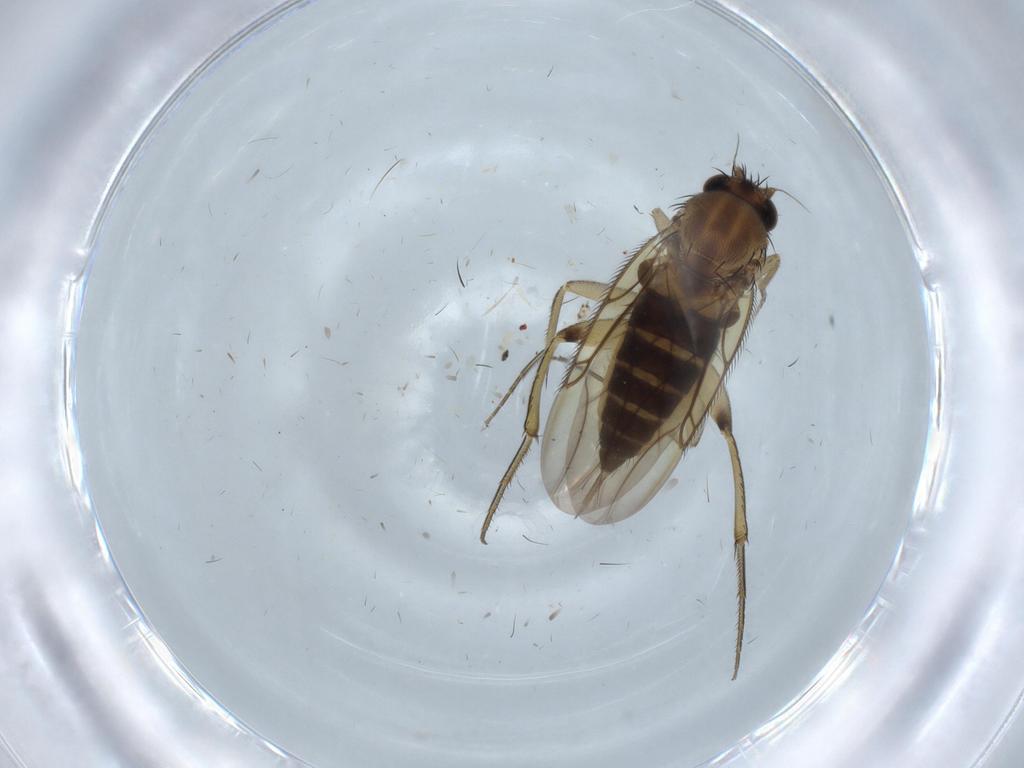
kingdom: Animalia
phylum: Arthropoda
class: Insecta
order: Diptera
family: Phoridae
